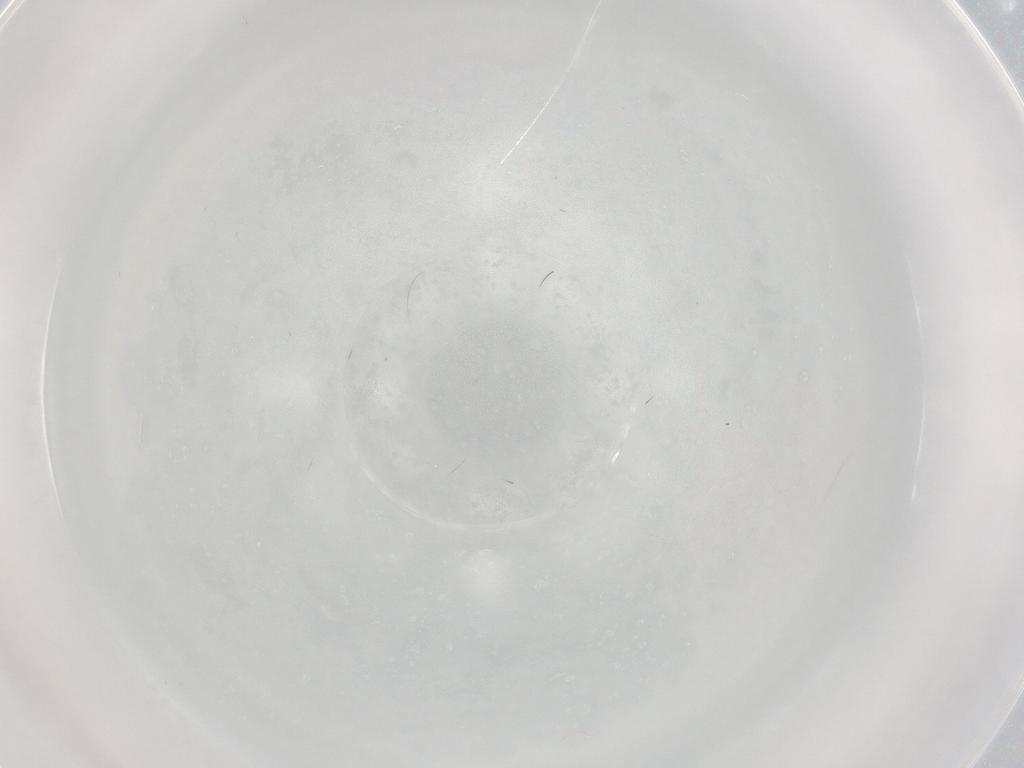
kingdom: Animalia
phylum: Arthropoda
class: Insecta
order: Diptera
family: Cecidomyiidae
